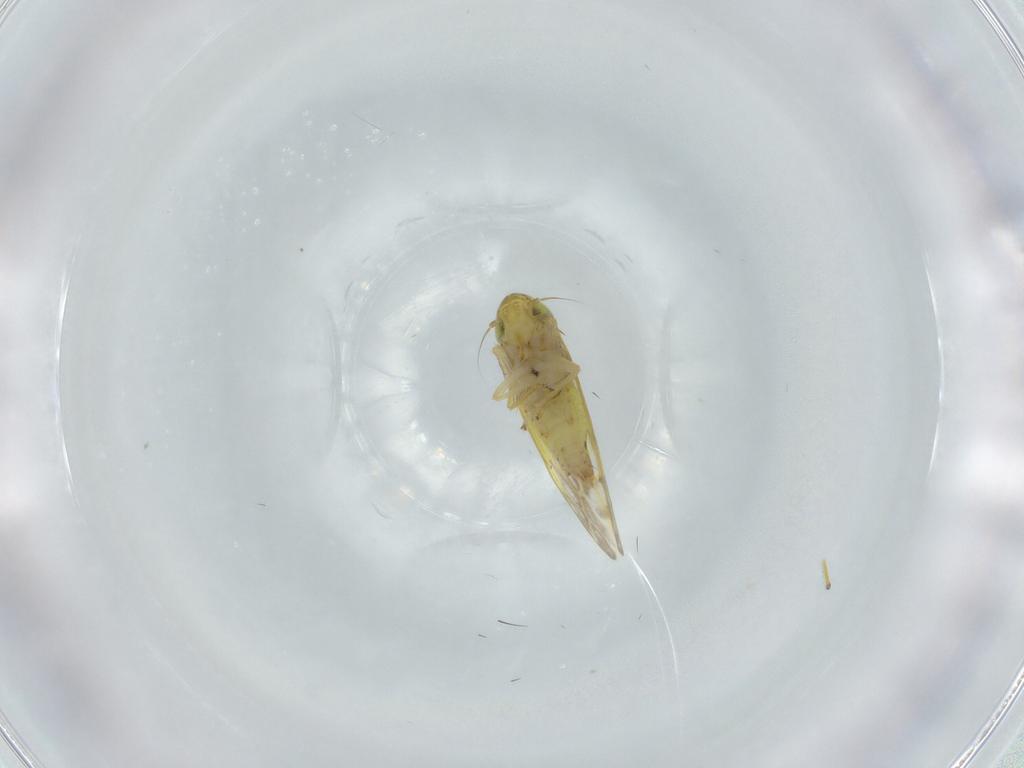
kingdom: Animalia
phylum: Arthropoda
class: Insecta
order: Hemiptera
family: Cicadellidae
